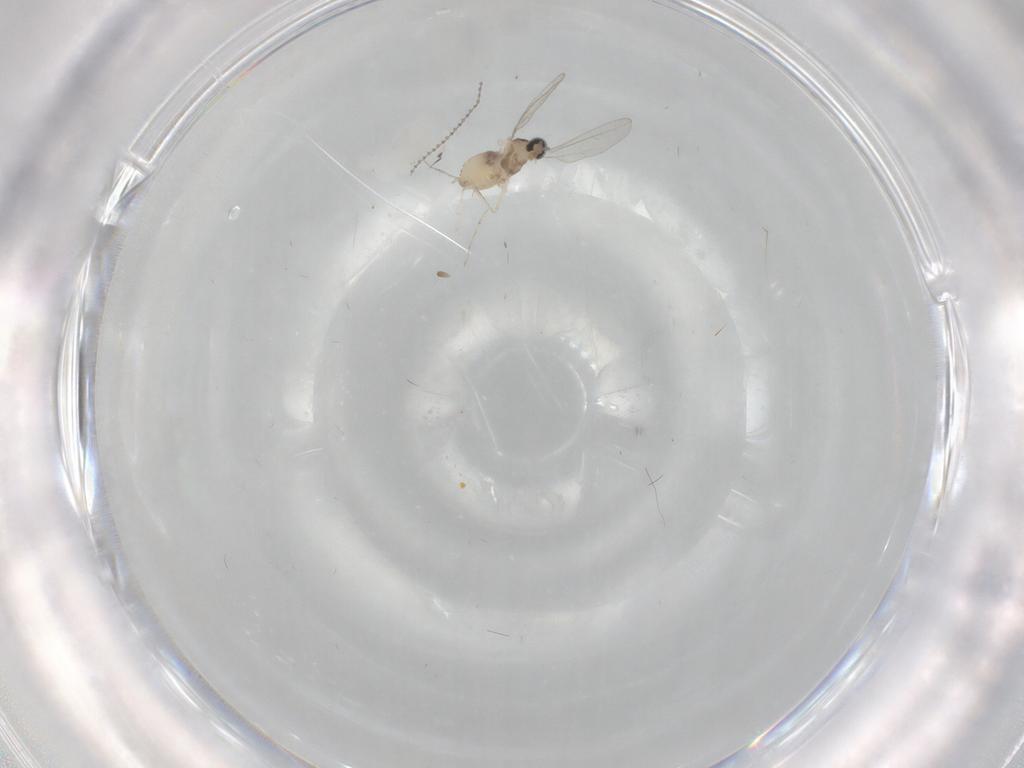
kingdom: Animalia
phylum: Arthropoda
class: Insecta
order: Diptera
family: Cecidomyiidae
